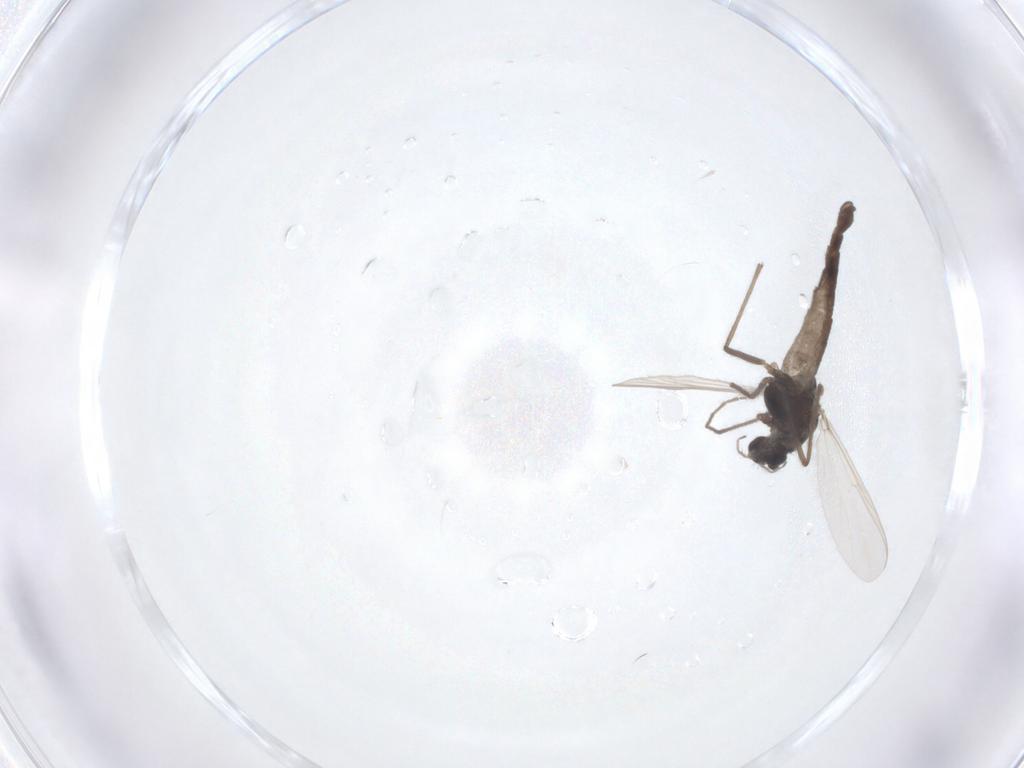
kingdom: Animalia
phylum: Arthropoda
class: Insecta
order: Diptera
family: Chironomidae
